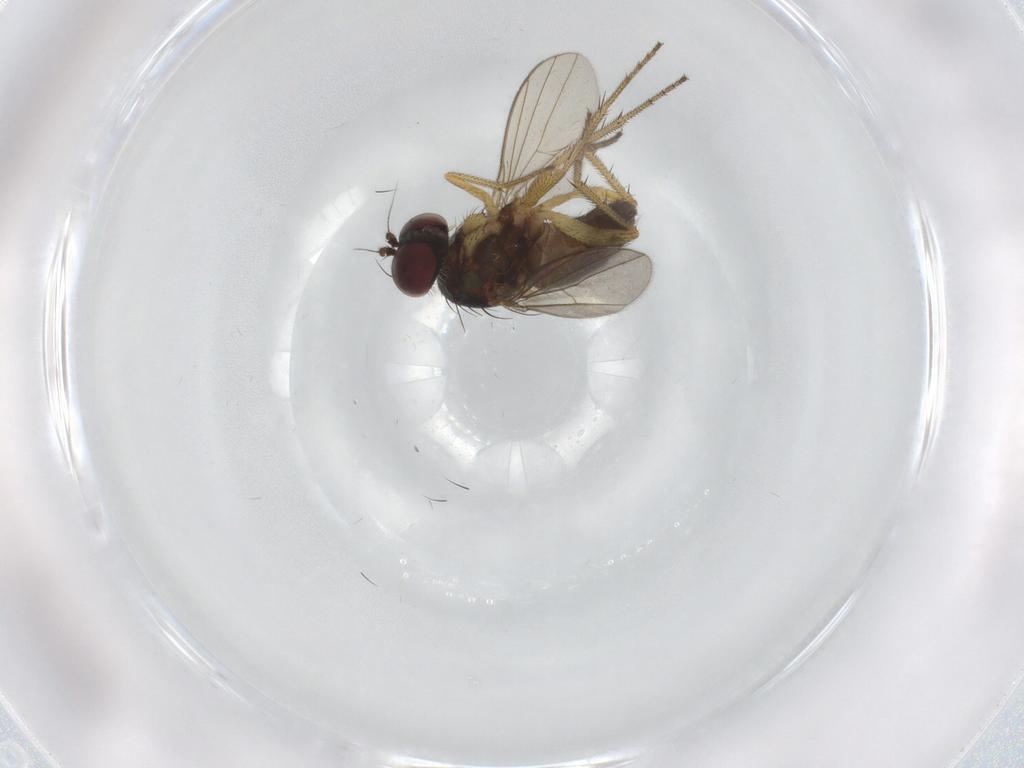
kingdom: Animalia
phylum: Arthropoda
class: Insecta
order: Diptera
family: Dolichopodidae
